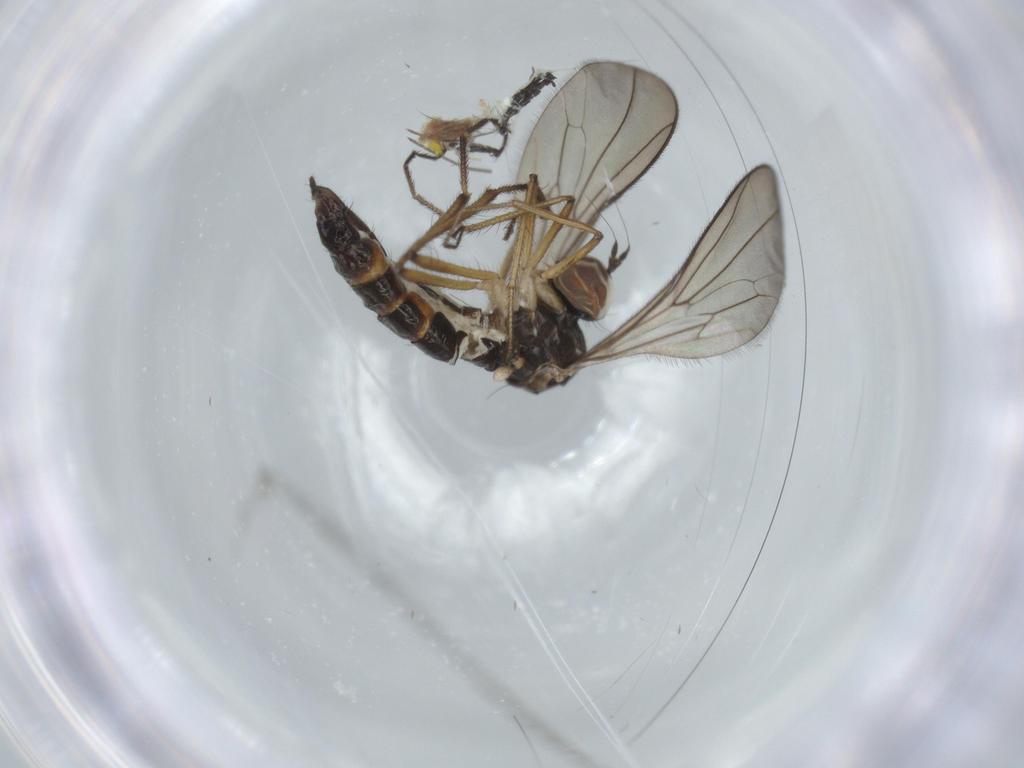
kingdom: Animalia
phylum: Arthropoda
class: Insecta
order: Diptera
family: Hybotidae
